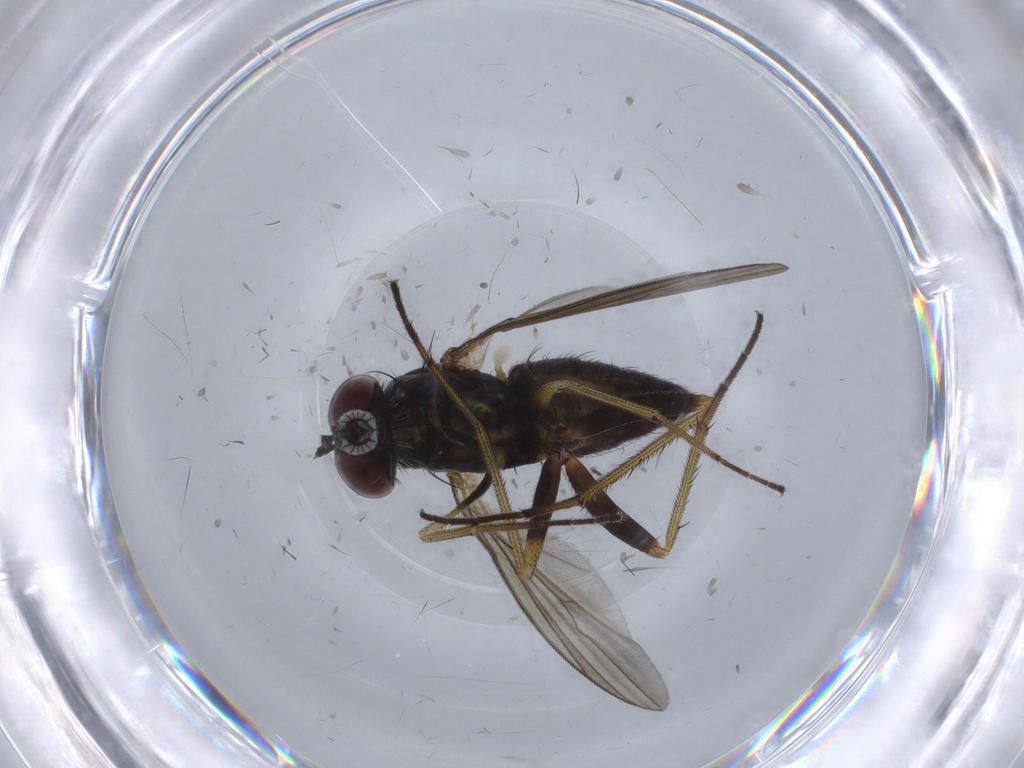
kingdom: Animalia
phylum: Arthropoda
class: Insecta
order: Diptera
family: Dolichopodidae
